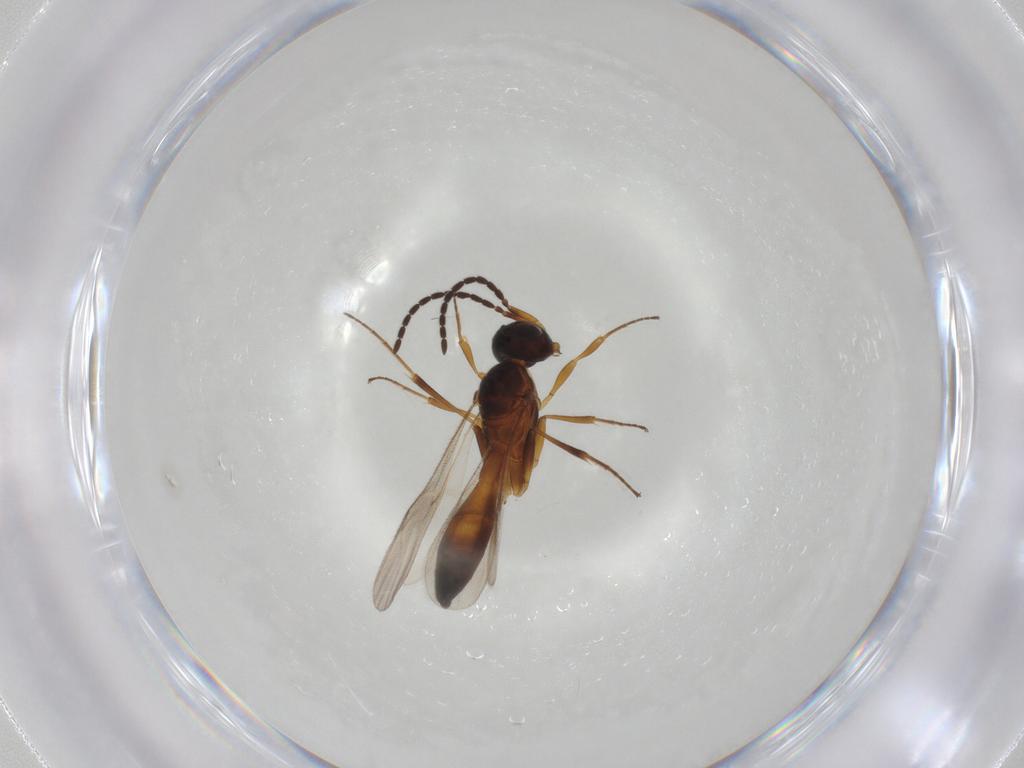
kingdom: Animalia
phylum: Arthropoda
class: Insecta
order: Hymenoptera
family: Scelionidae
